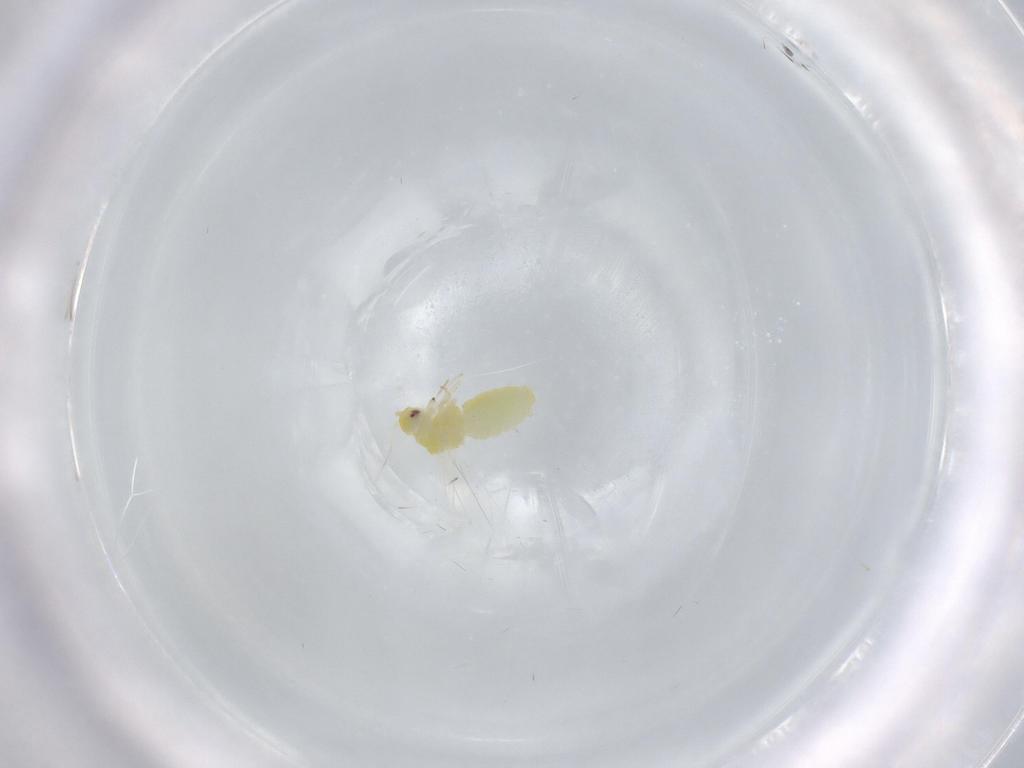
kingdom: Animalia
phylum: Arthropoda
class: Insecta
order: Hemiptera
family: Aleyrodidae
